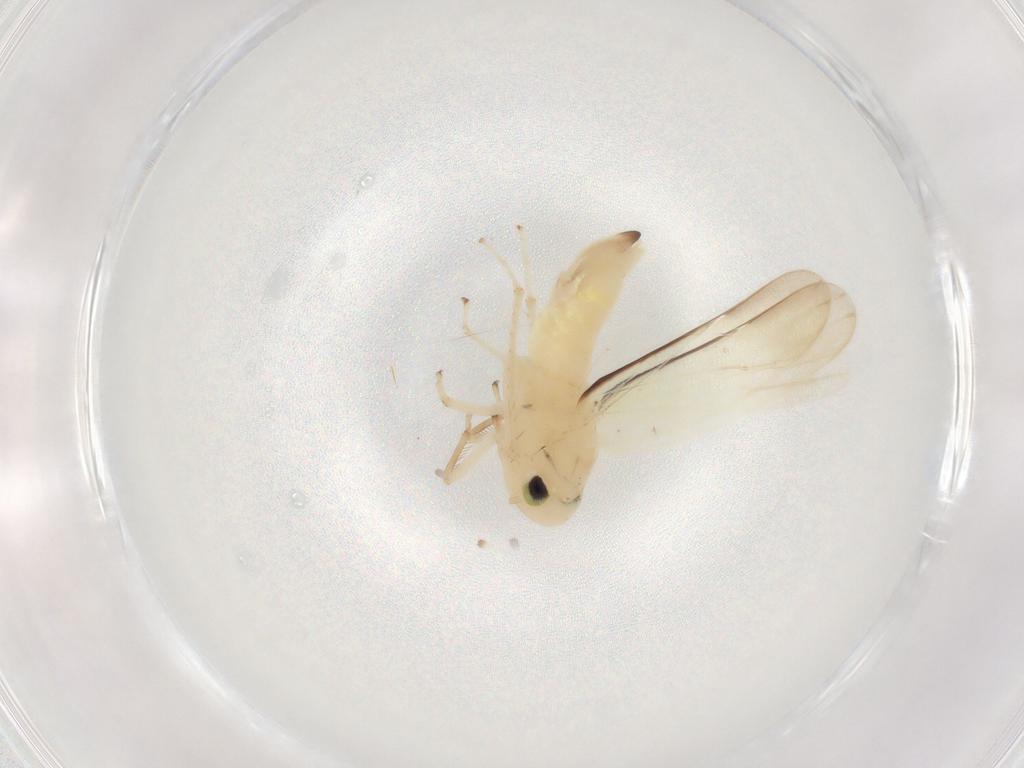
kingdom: Animalia
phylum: Arthropoda
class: Insecta
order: Hemiptera
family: Cicadellidae
